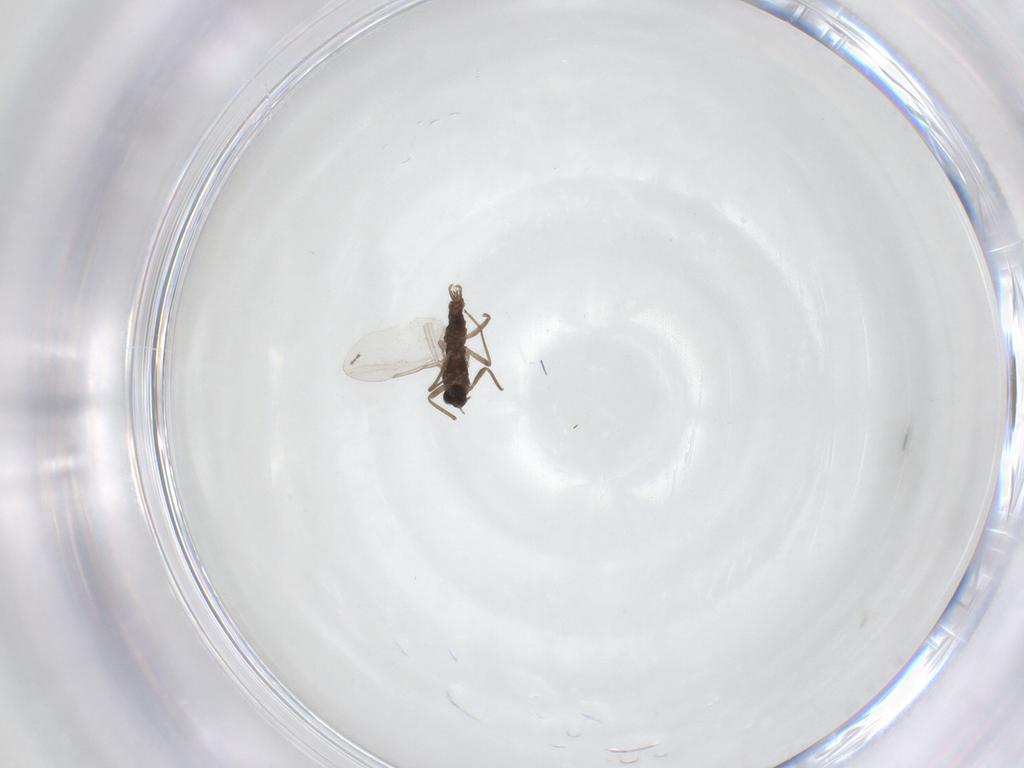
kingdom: Animalia
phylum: Arthropoda
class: Insecta
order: Diptera
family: Cecidomyiidae
